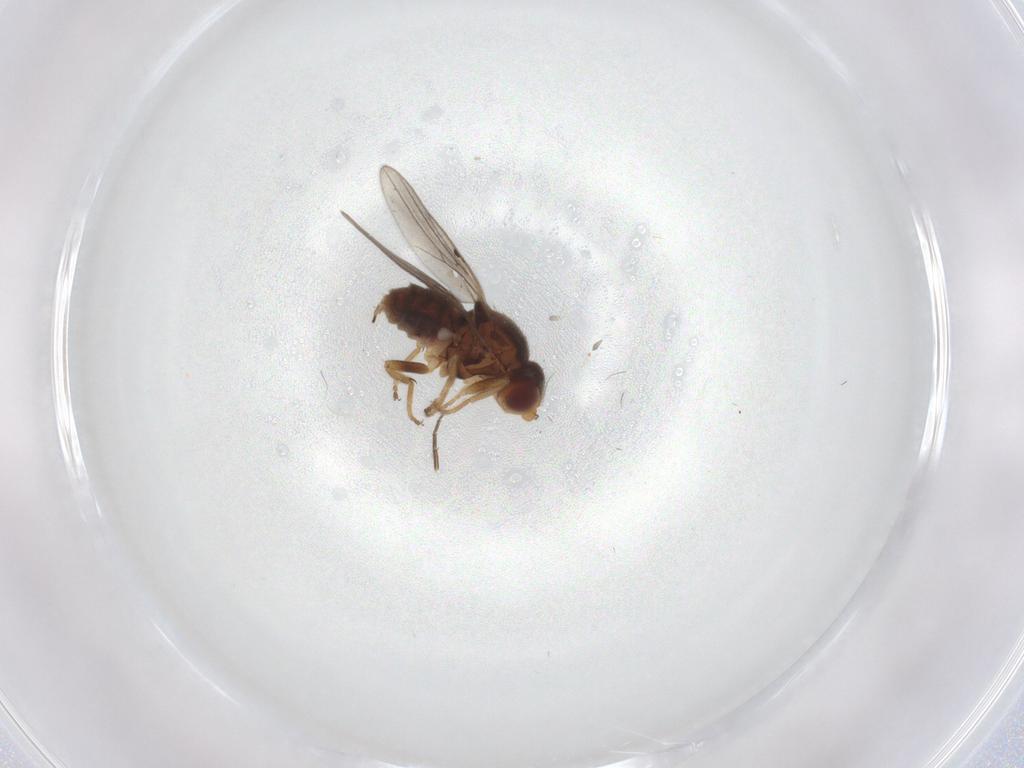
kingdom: Animalia
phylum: Arthropoda
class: Insecta
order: Diptera
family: Chloropidae
